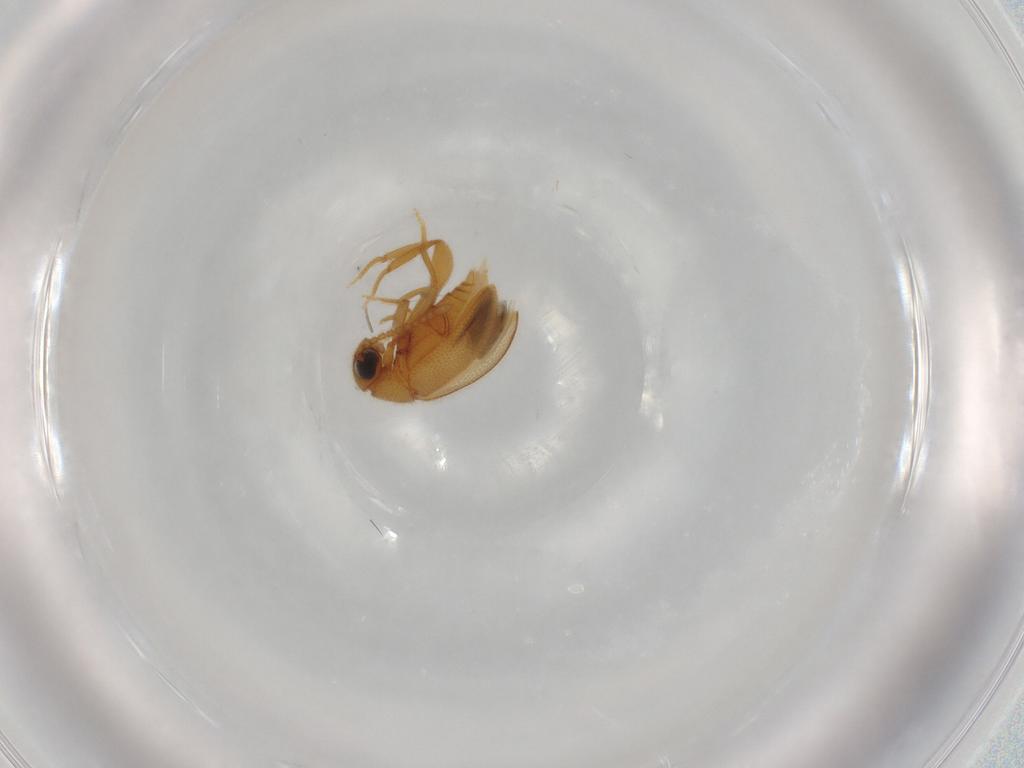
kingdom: Animalia
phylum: Arthropoda
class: Insecta
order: Coleoptera
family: Aderidae
